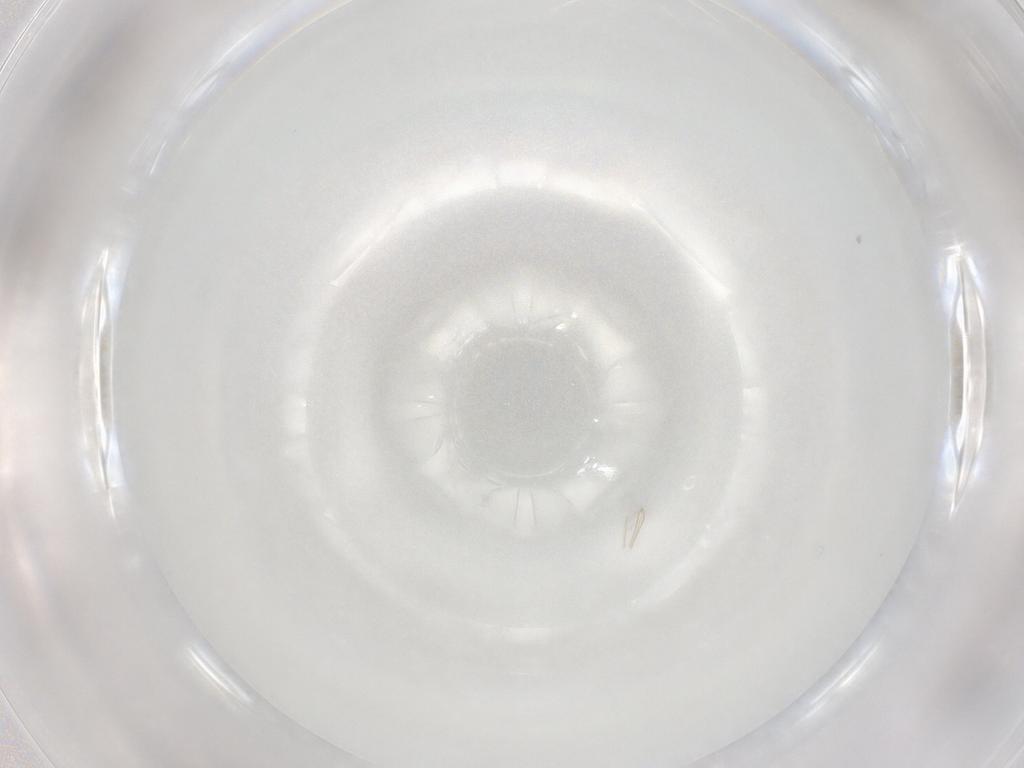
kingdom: Animalia
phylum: Arthropoda
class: Insecta
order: Hymenoptera
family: Mymaridae
